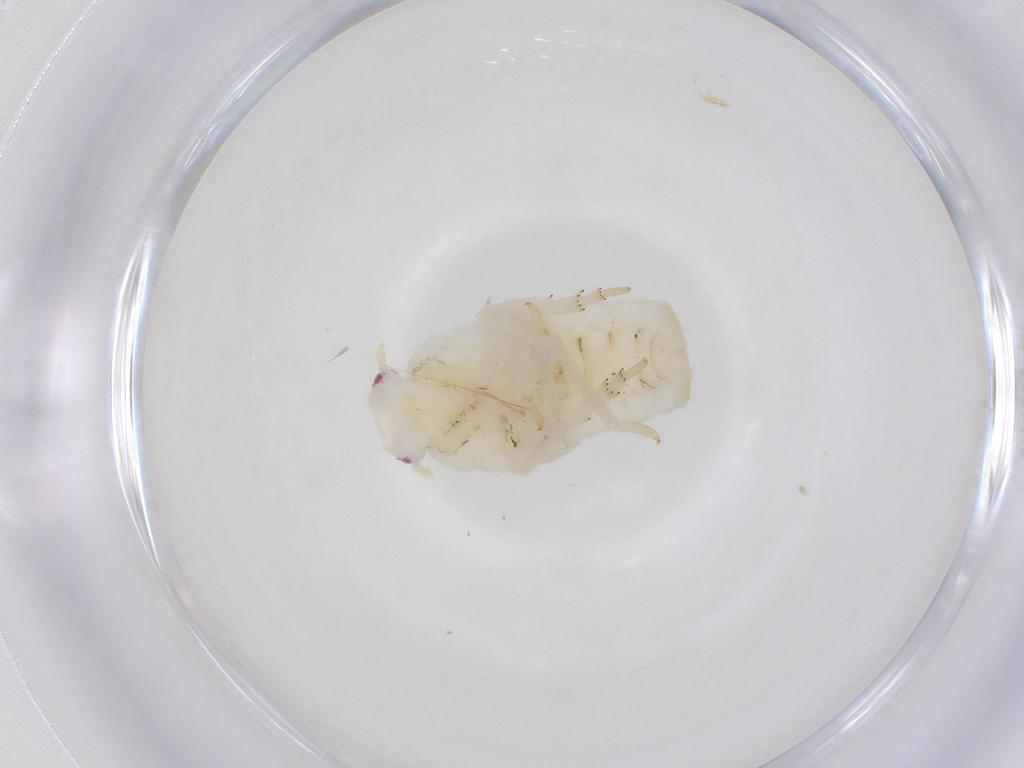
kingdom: Animalia
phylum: Arthropoda
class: Insecta
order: Hemiptera
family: Flatidae
